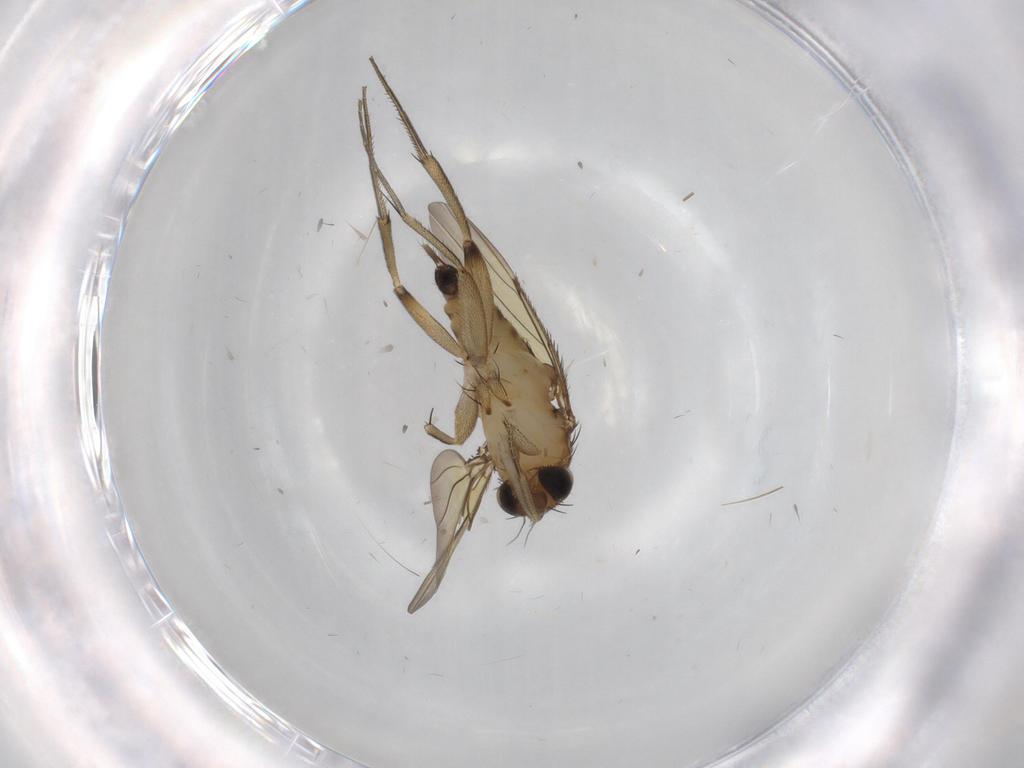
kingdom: Animalia
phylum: Arthropoda
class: Insecta
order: Diptera
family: Phoridae
